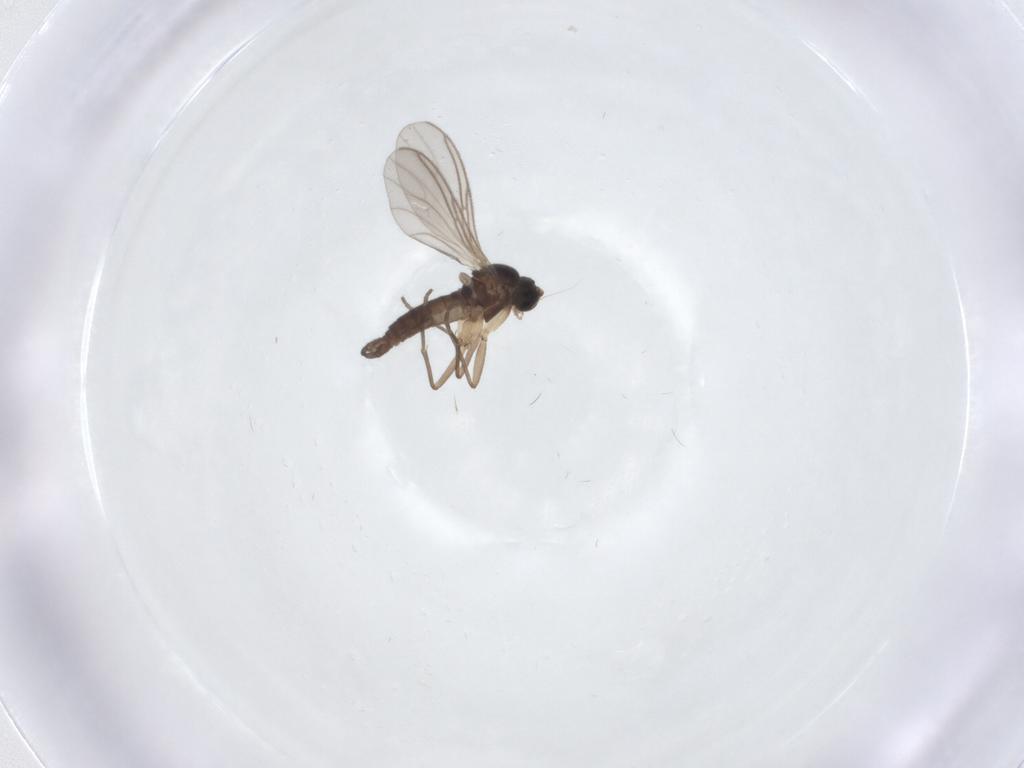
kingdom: Animalia
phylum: Arthropoda
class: Insecta
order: Diptera
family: Sciaridae
